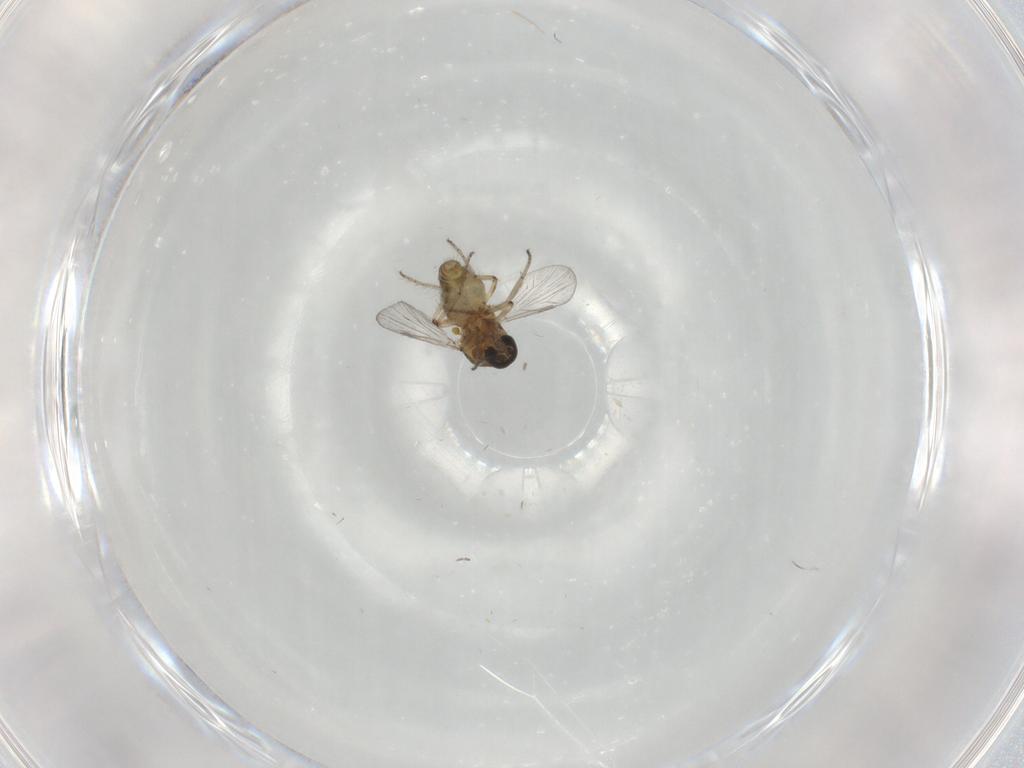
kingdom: Animalia
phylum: Arthropoda
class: Insecta
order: Diptera
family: Ceratopogonidae
